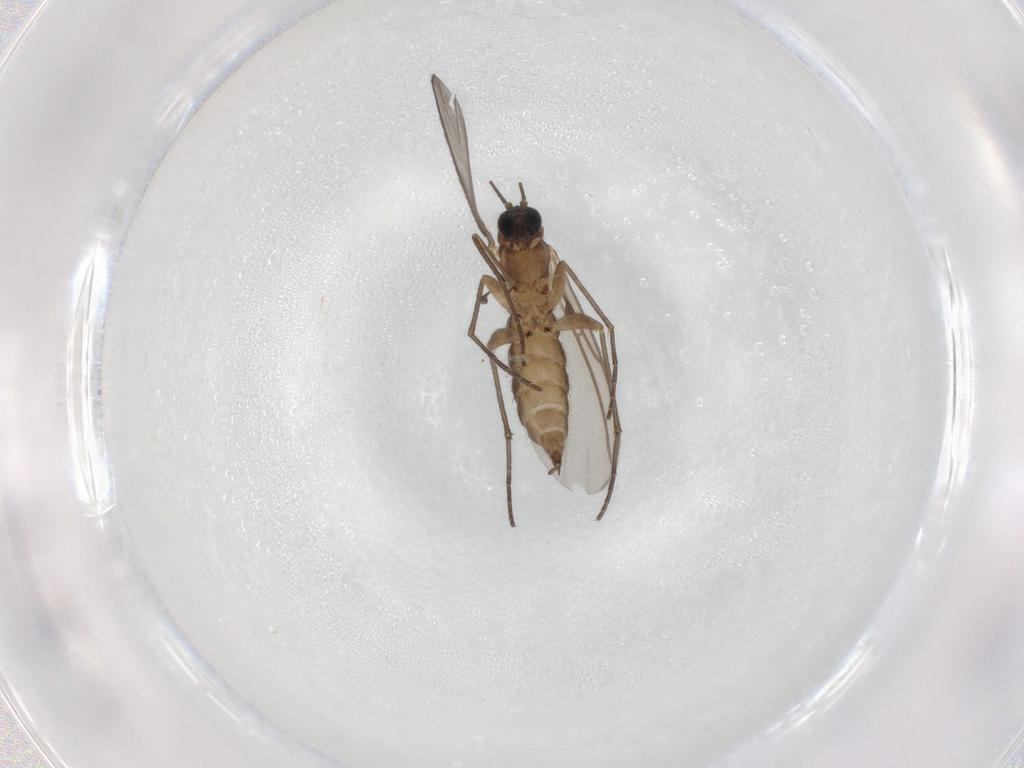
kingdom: Animalia
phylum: Arthropoda
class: Insecta
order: Diptera
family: Sciaridae
